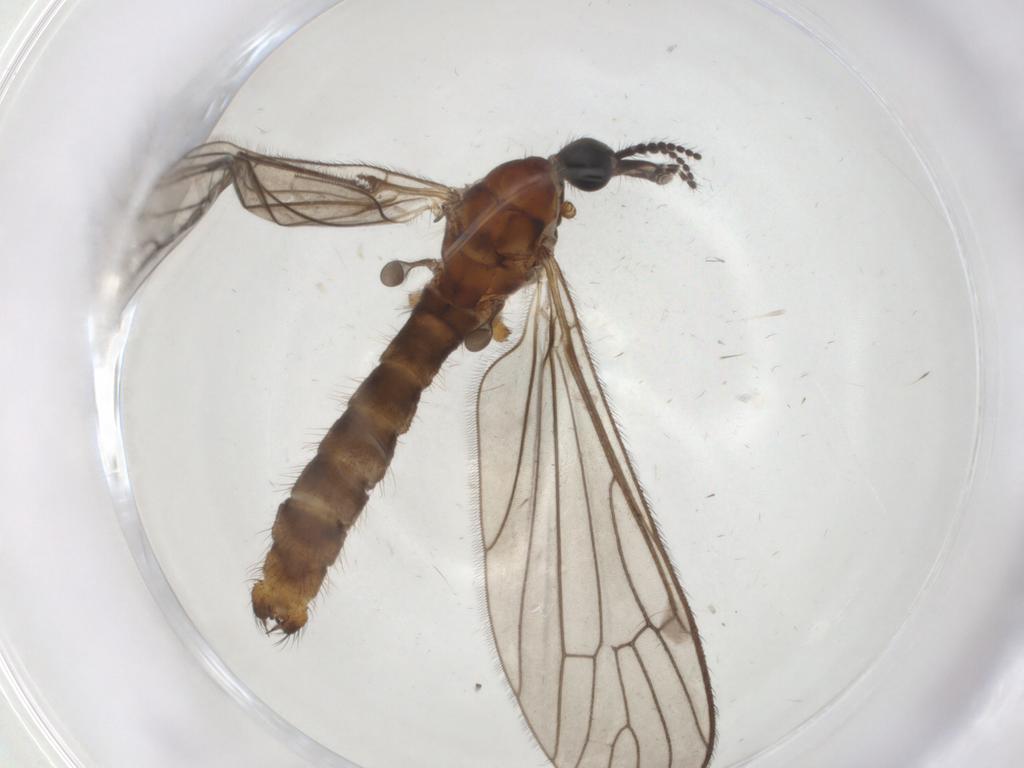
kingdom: Animalia
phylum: Arthropoda
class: Insecta
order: Diptera
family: Limoniidae
